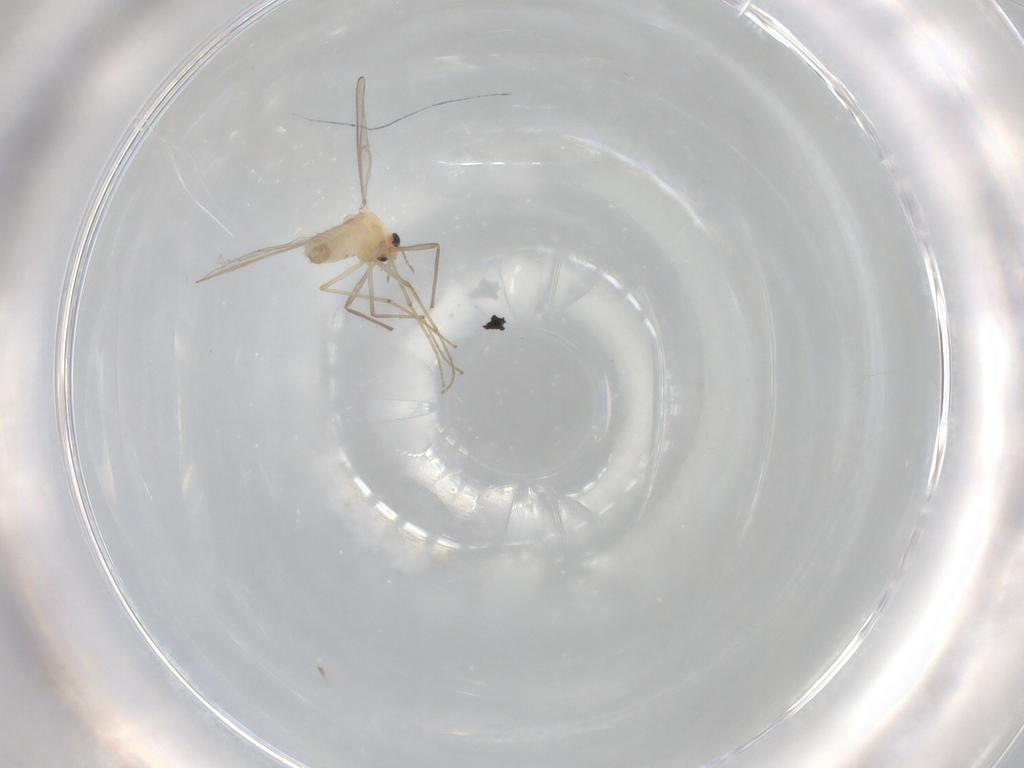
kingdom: Animalia
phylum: Arthropoda
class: Insecta
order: Diptera
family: Chironomidae
